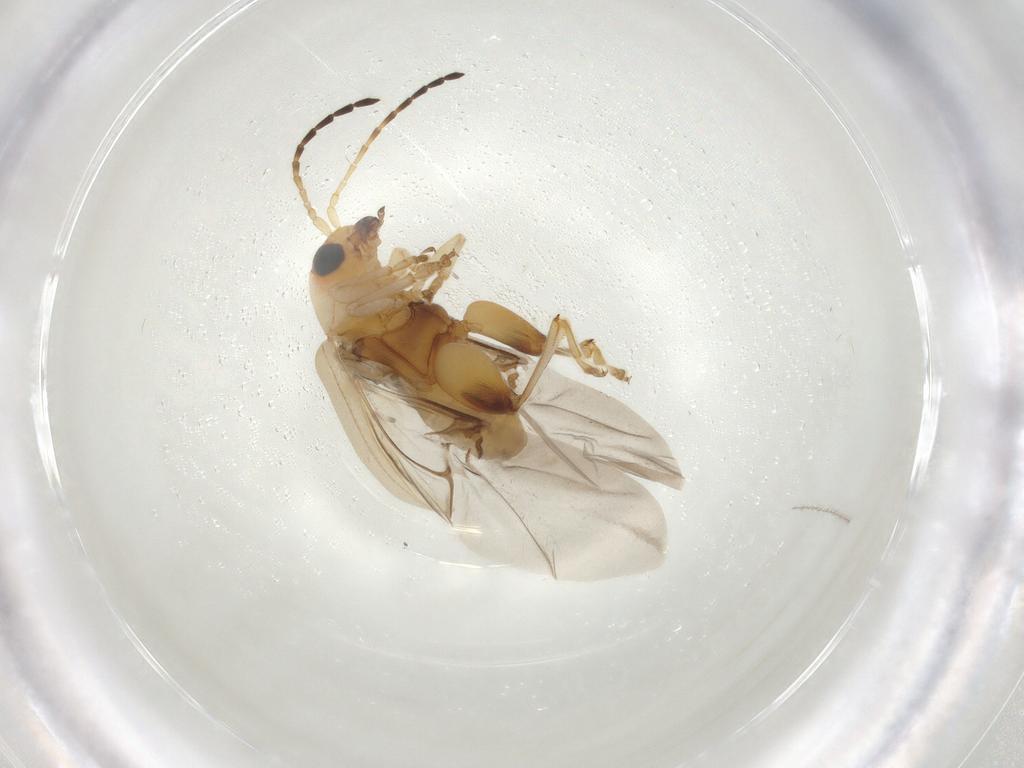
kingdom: Animalia
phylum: Arthropoda
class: Insecta
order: Coleoptera
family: Chrysomelidae
